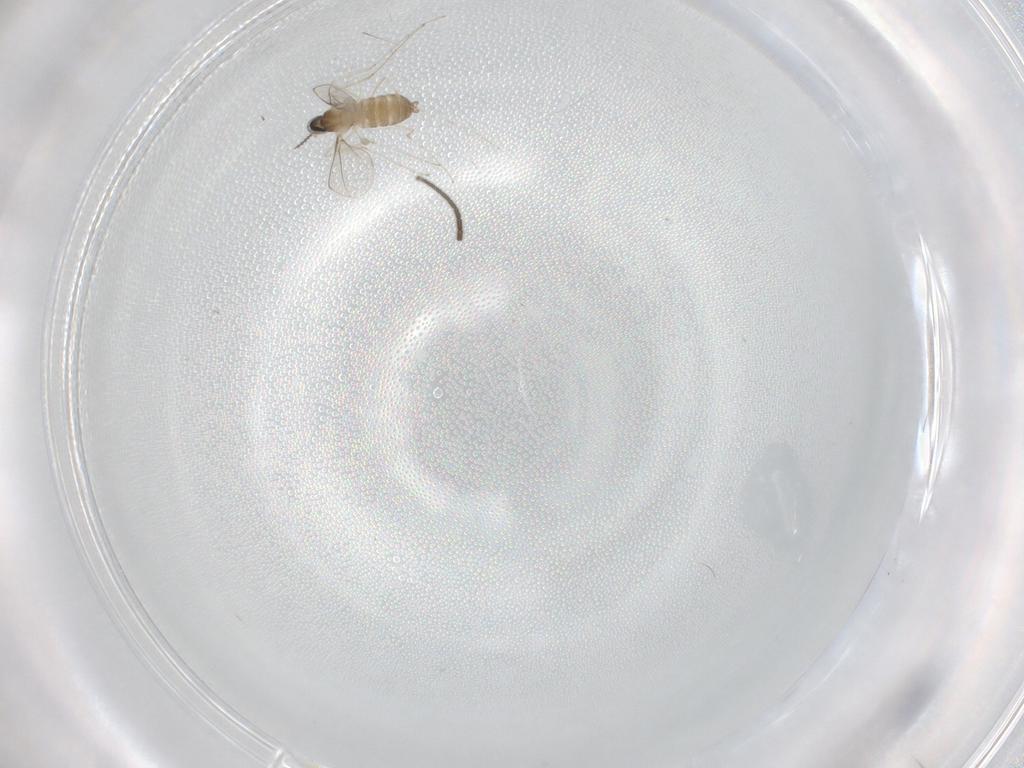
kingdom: Animalia
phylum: Arthropoda
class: Insecta
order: Diptera
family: Sciaridae
